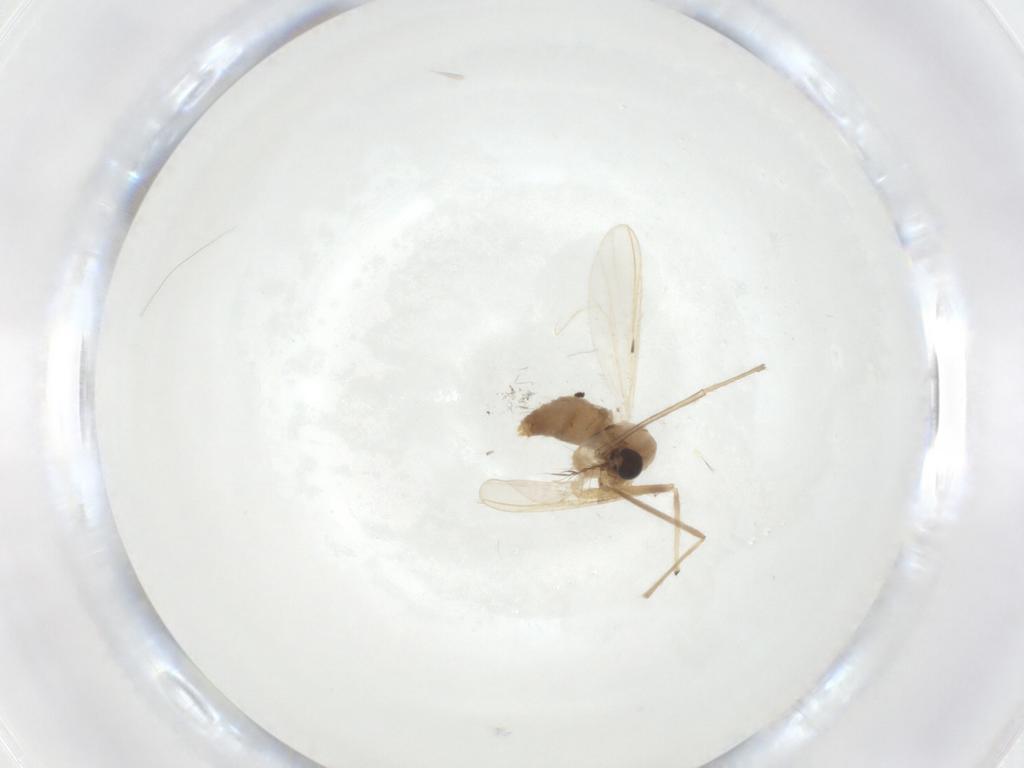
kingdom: Animalia
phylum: Arthropoda
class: Insecta
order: Diptera
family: Chironomidae
